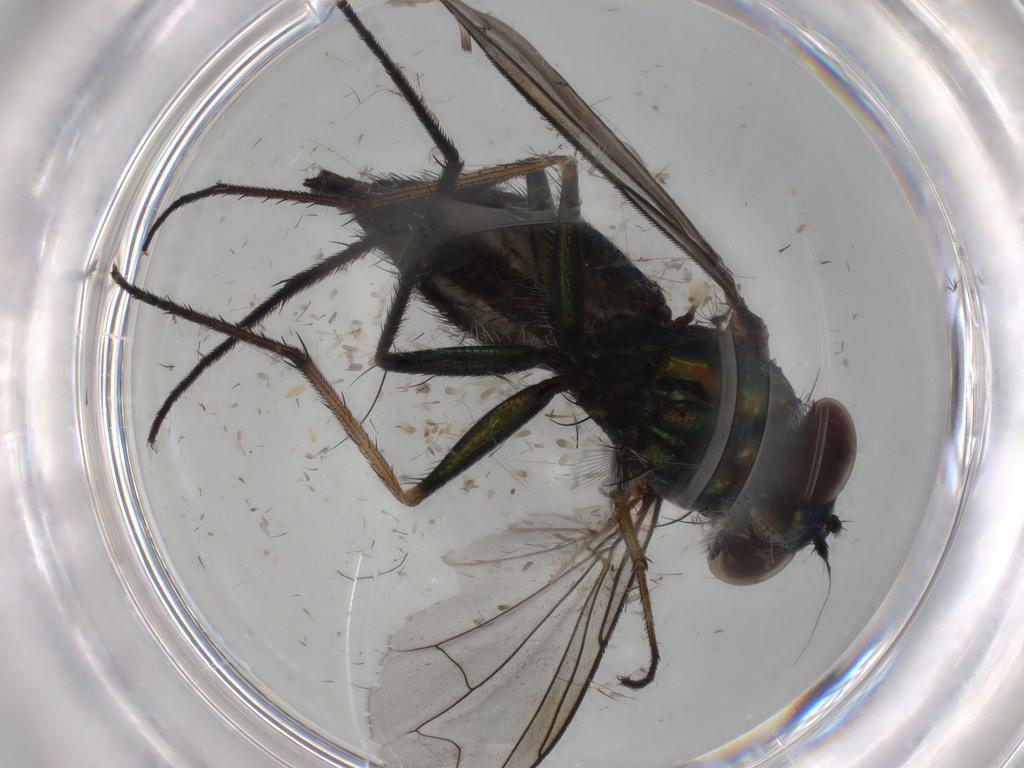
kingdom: Animalia
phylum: Arthropoda
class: Insecta
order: Diptera
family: Dolichopodidae
